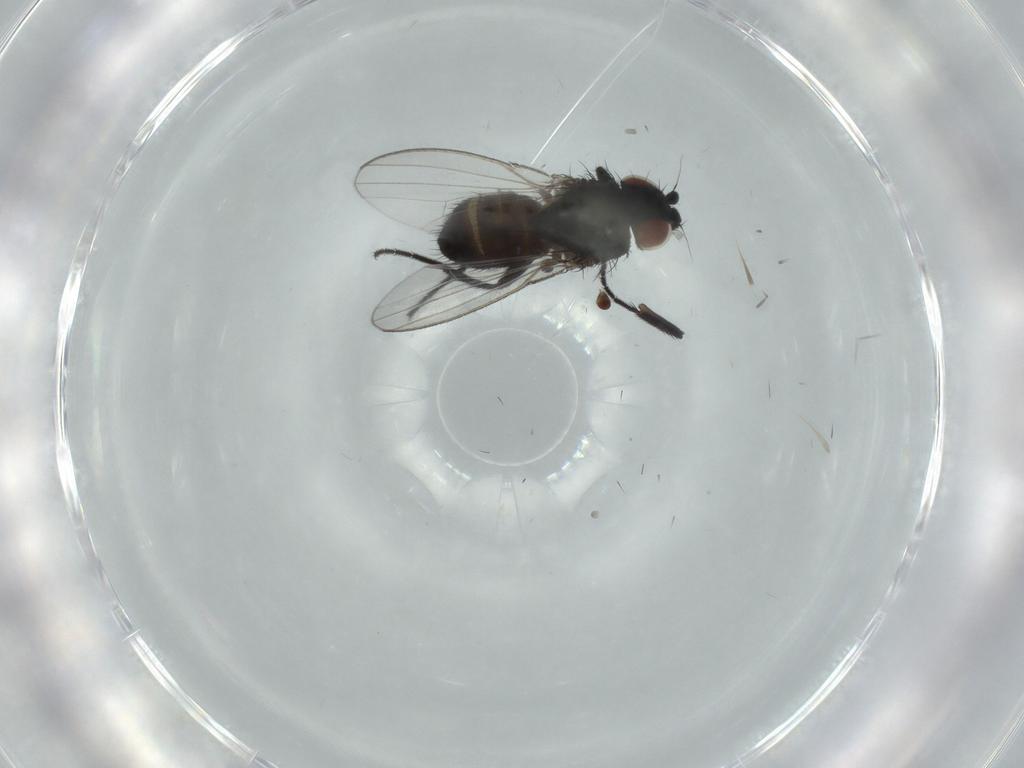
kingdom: Animalia
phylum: Arthropoda
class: Insecta
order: Diptera
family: Milichiidae
